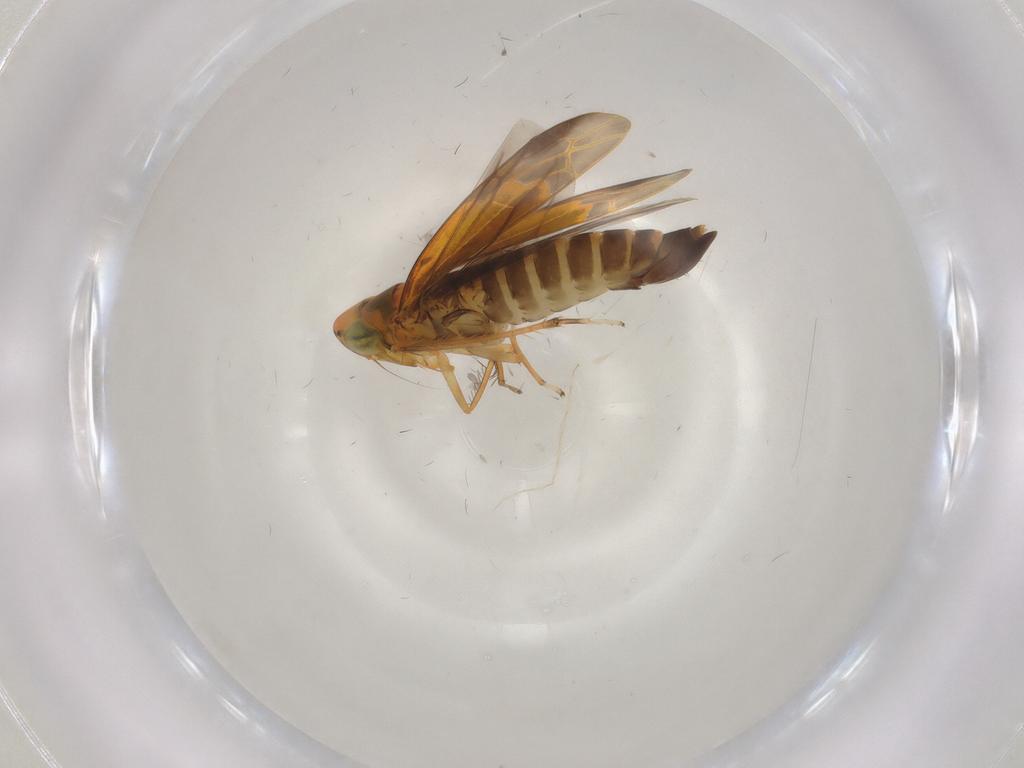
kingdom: Animalia
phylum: Arthropoda
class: Insecta
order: Hemiptera
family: Cicadellidae
